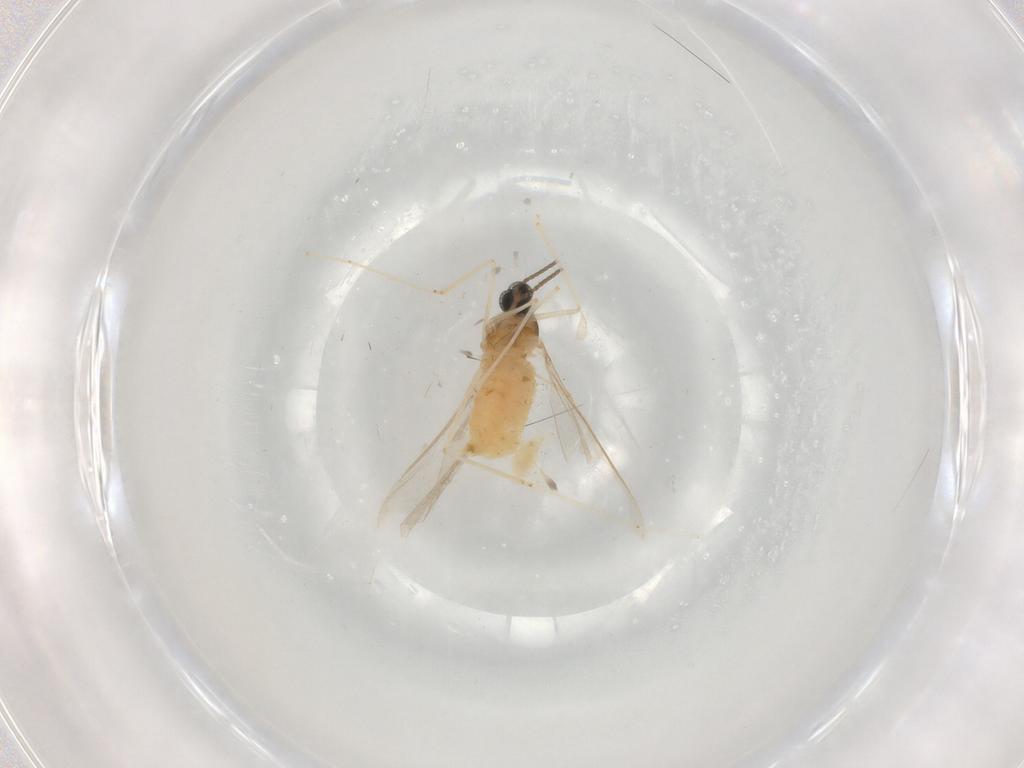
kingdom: Animalia
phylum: Arthropoda
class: Insecta
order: Diptera
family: Cecidomyiidae
